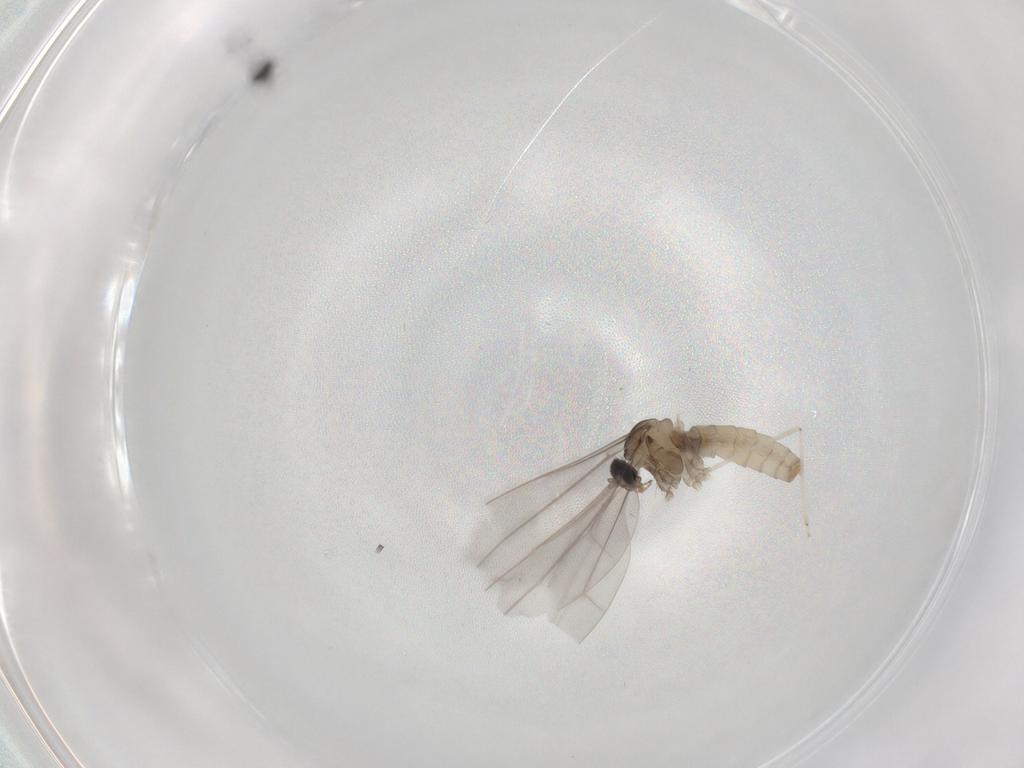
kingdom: Animalia
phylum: Arthropoda
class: Insecta
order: Diptera
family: Cecidomyiidae
